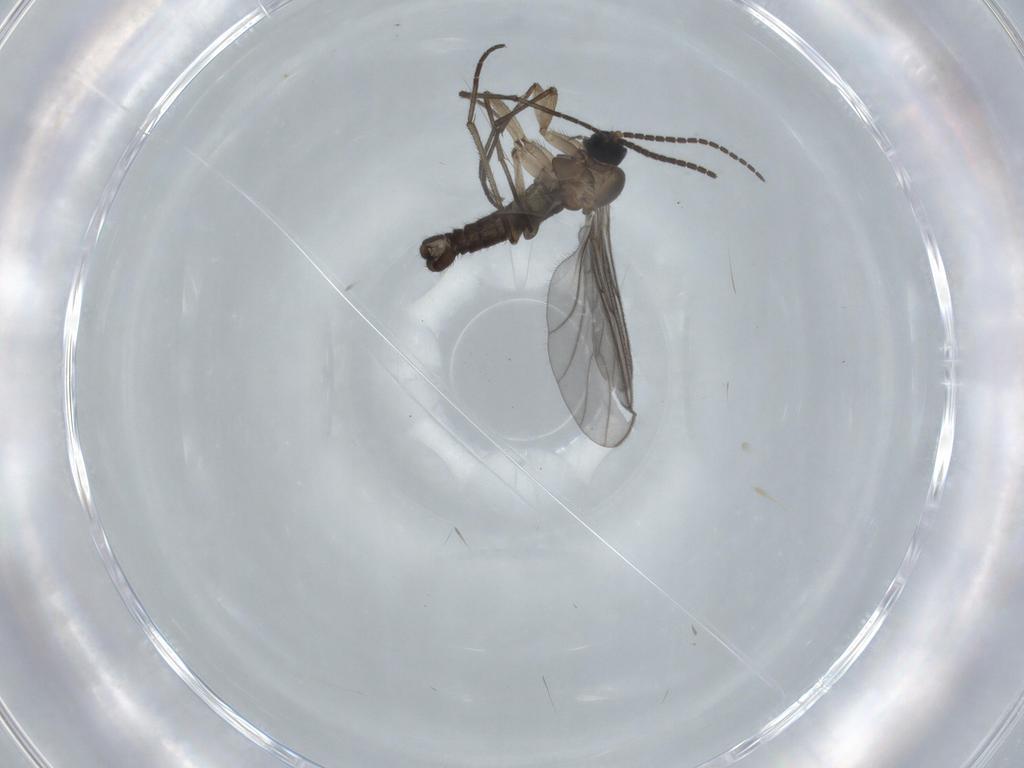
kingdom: Animalia
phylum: Arthropoda
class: Insecta
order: Diptera
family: Sciaridae
